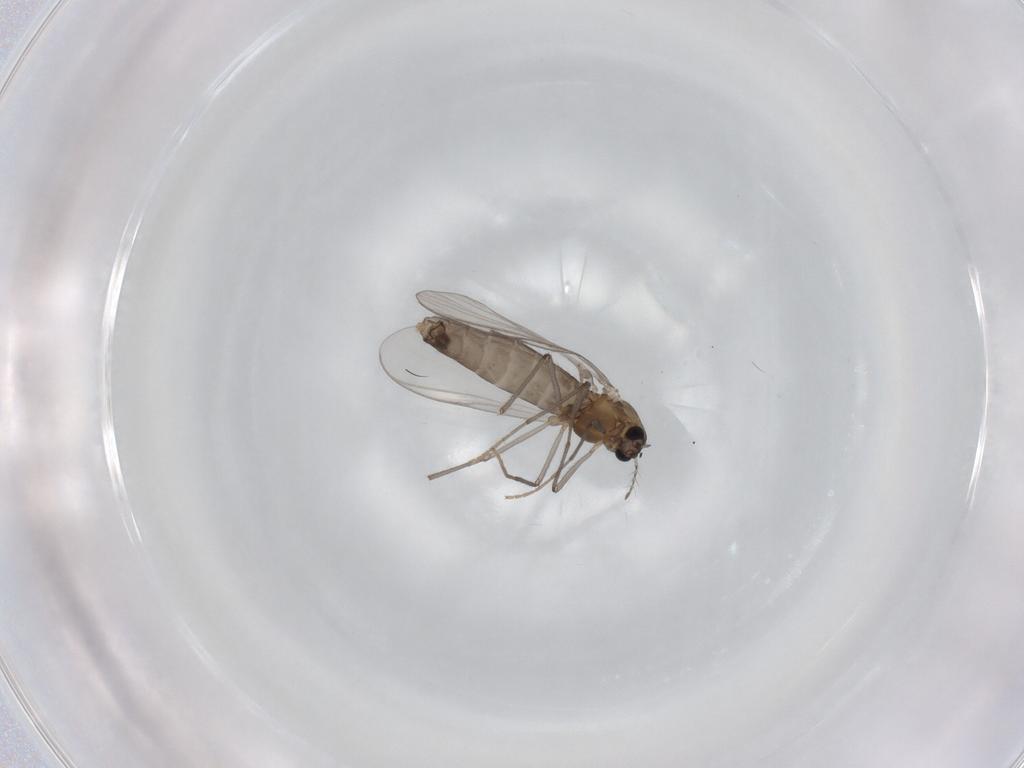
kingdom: Animalia
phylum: Arthropoda
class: Insecta
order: Diptera
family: Chironomidae
